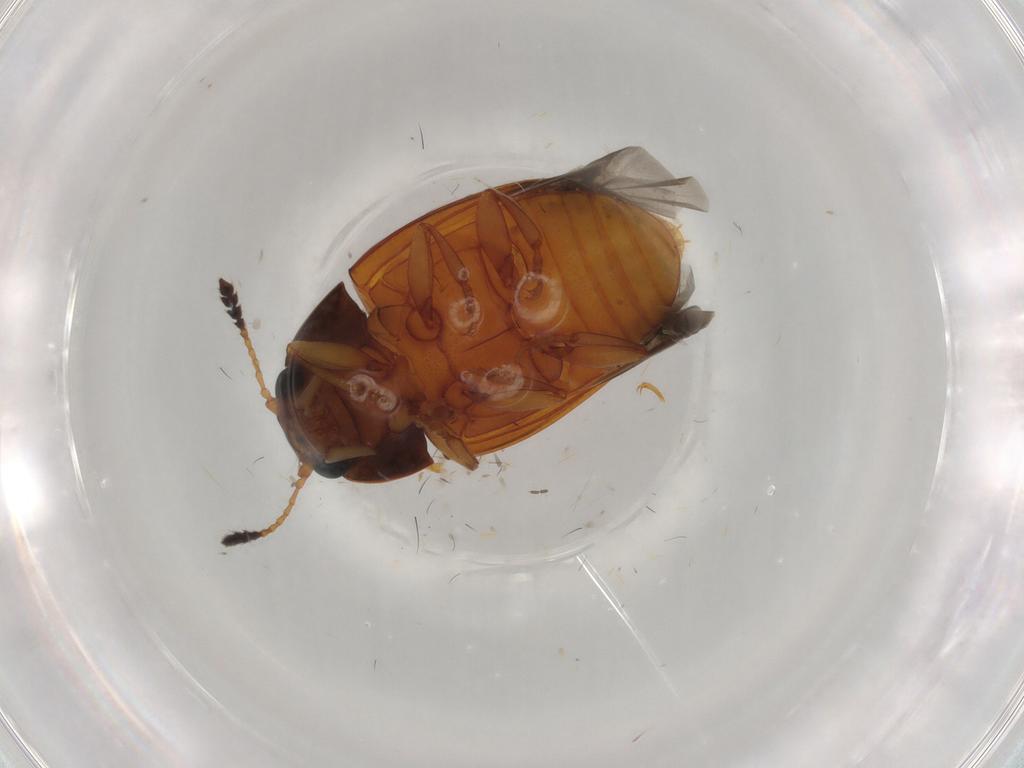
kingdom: Animalia
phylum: Arthropoda
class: Insecta
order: Coleoptera
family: Erotylidae
